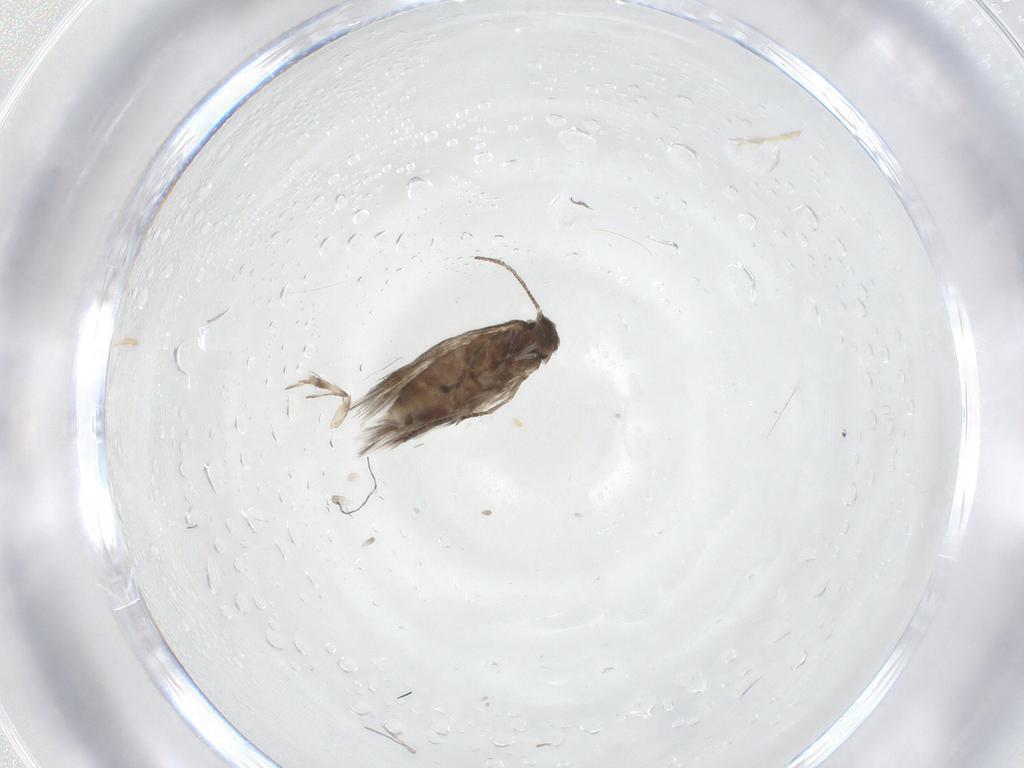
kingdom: Animalia
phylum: Arthropoda
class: Insecta
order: Lepidoptera
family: Lyonetiidae
